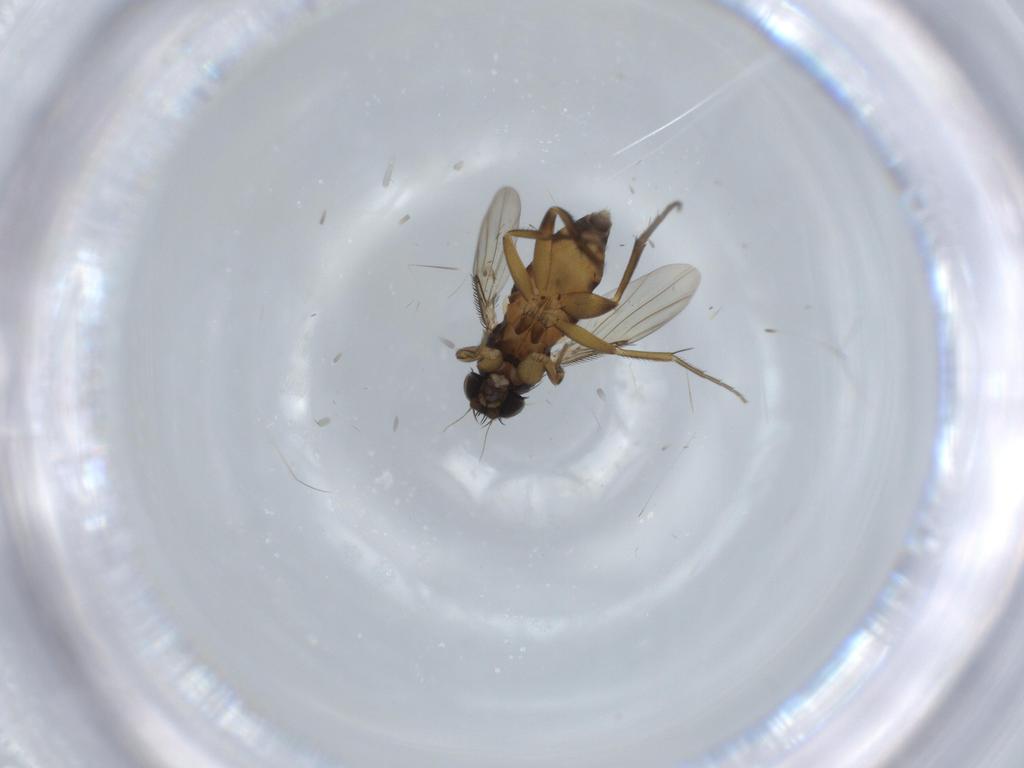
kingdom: Animalia
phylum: Arthropoda
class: Insecta
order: Diptera
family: Phoridae
